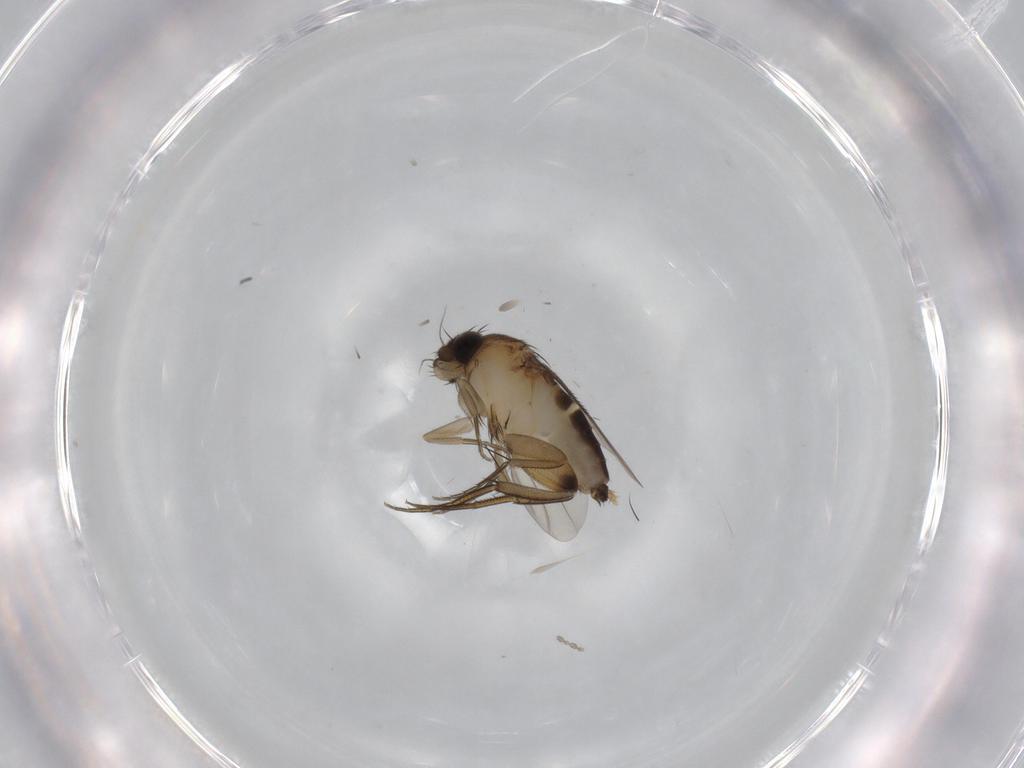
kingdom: Animalia
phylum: Arthropoda
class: Insecta
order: Diptera
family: Phoridae
